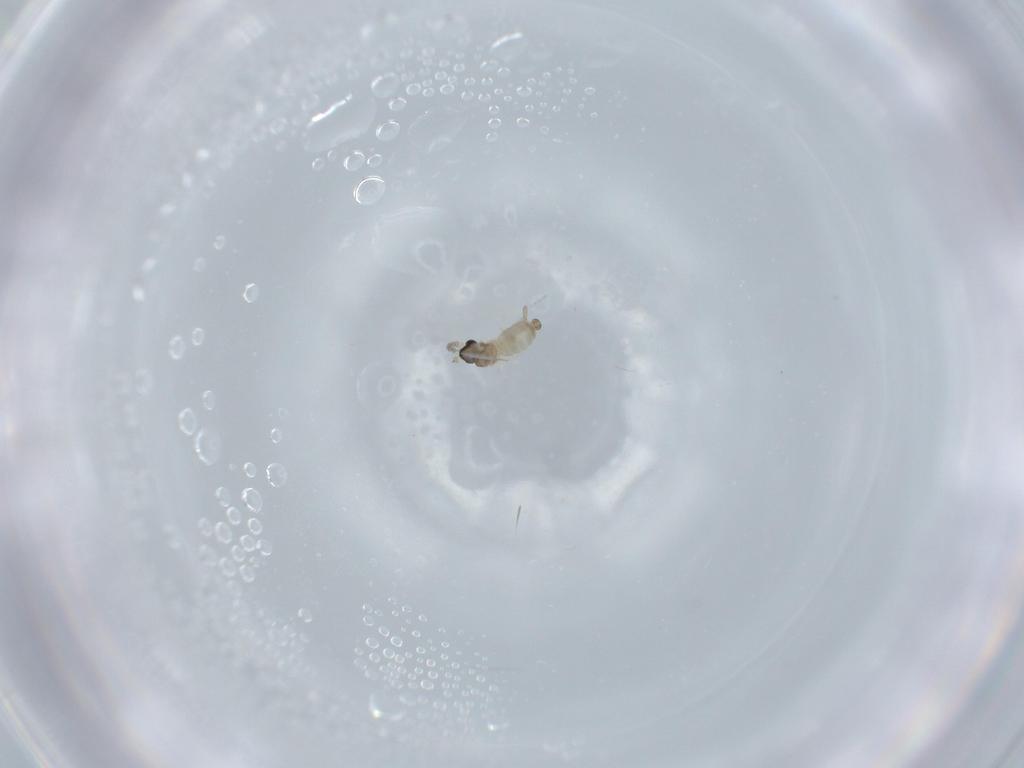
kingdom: Animalia
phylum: Arthropoda
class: Insecta
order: Diptera
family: Cecidomyiidae
